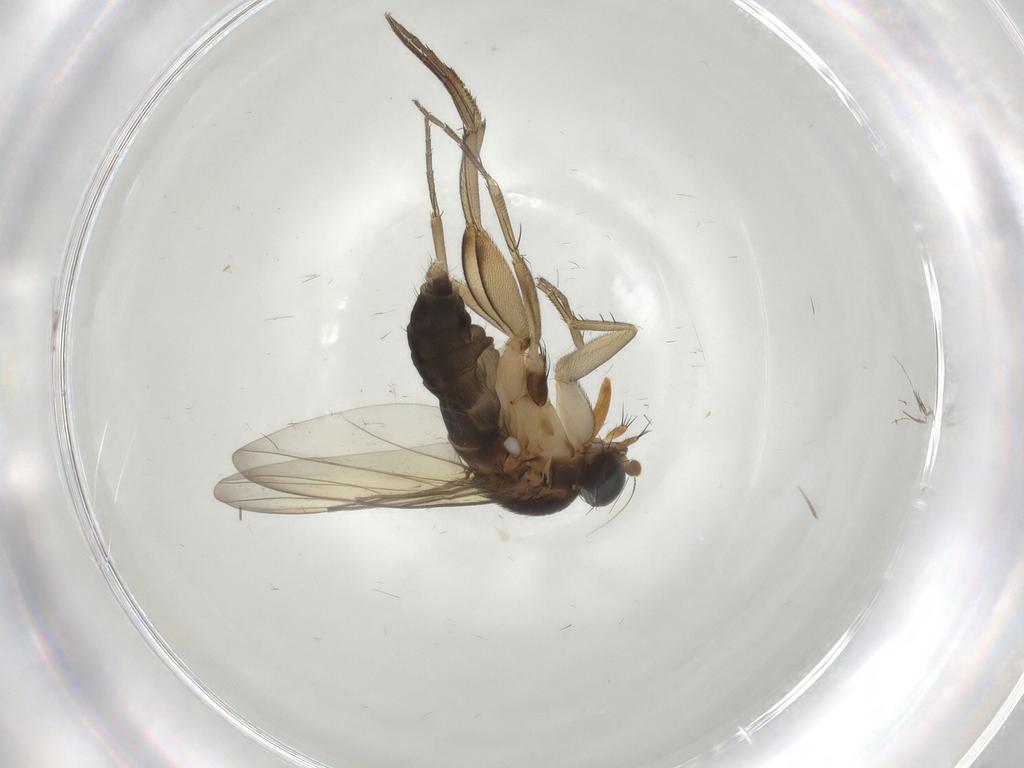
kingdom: Animalia
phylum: Arthropoda
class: Insecta
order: Diptera
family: Phoridae
